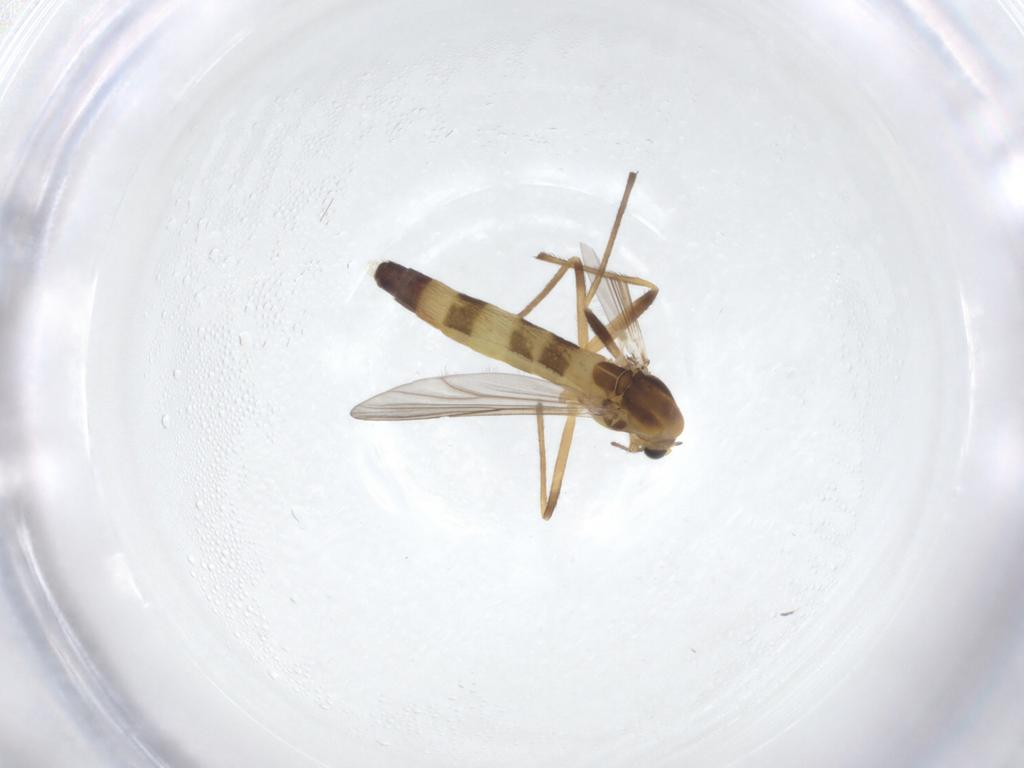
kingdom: Animalia
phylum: Arthropoda
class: Insecta
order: Diptera
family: Chironomidae
